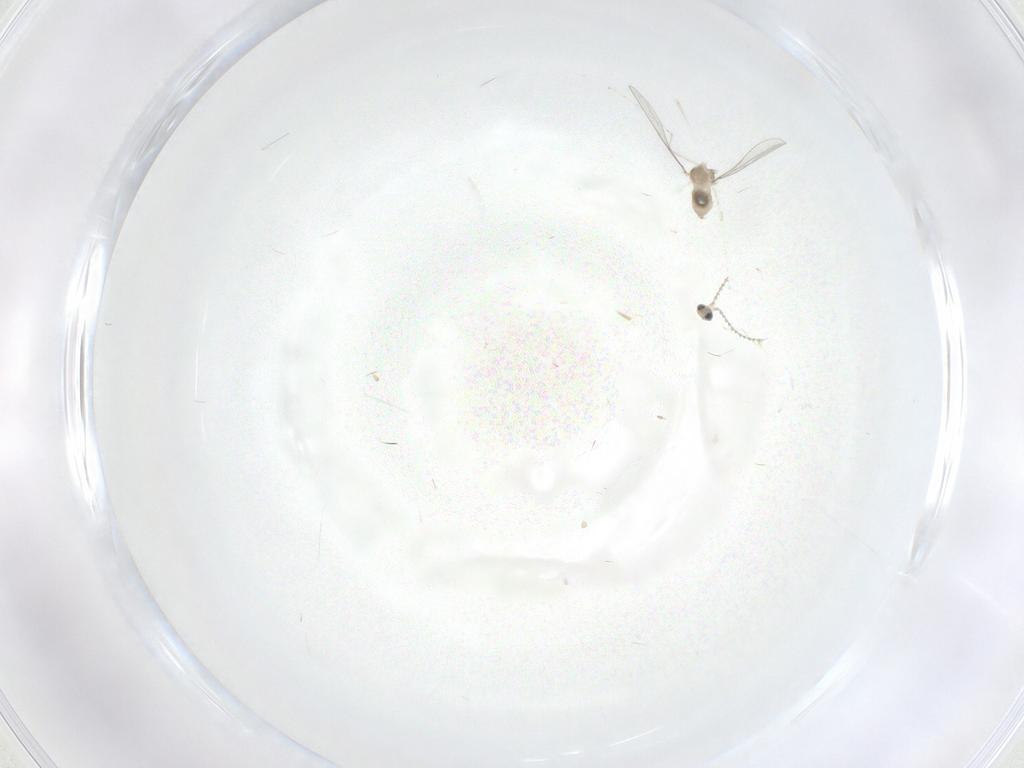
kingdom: Animalia
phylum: Arthropoda
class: Insecta
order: Diptera
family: Cecidomyiidae
